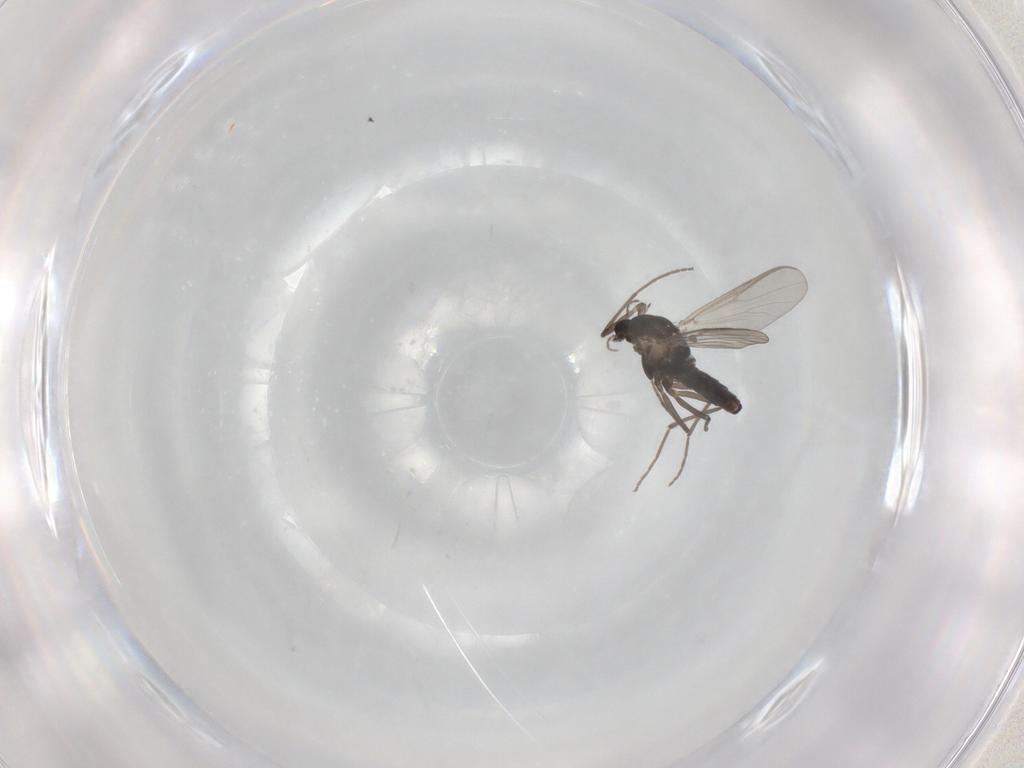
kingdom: Animalia
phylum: Arthropoda
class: Insecta
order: Diptera
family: Chironomidae
